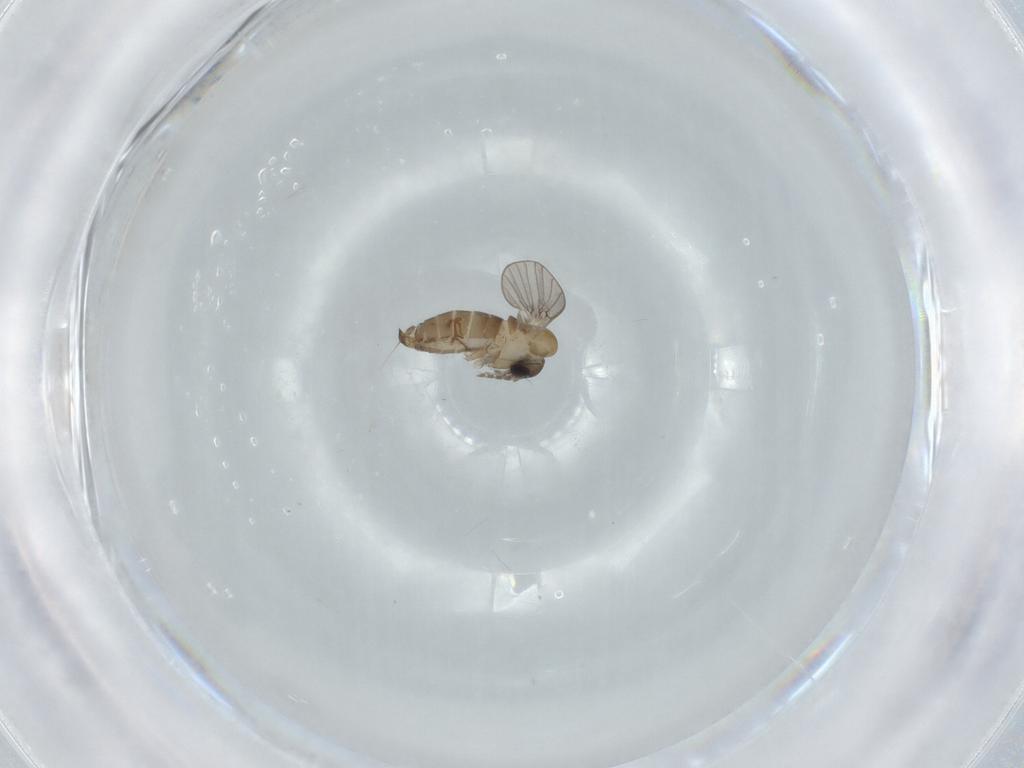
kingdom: Animalia
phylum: Arthropoda
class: Insecta
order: Diptera
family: Psychodidae
